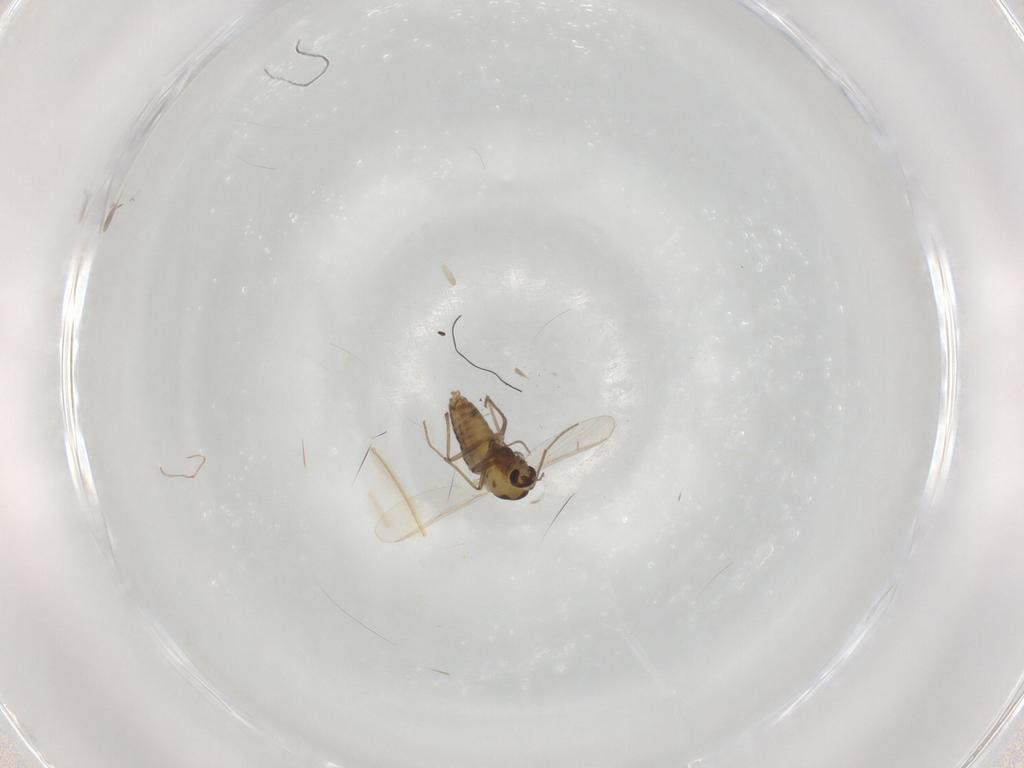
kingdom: Animalia
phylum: Arthropoda
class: Insecta
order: Diptera
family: Chironomidae
